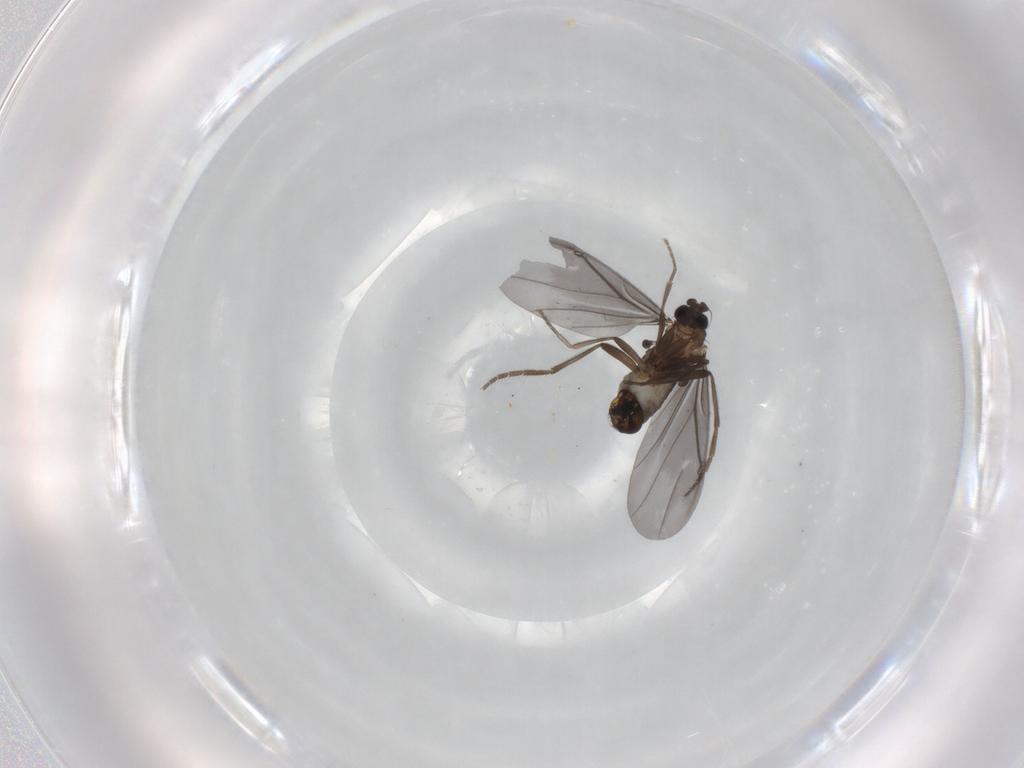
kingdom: Animalia
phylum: Arthropoda
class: Insecta
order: Diptera
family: Phoridae
